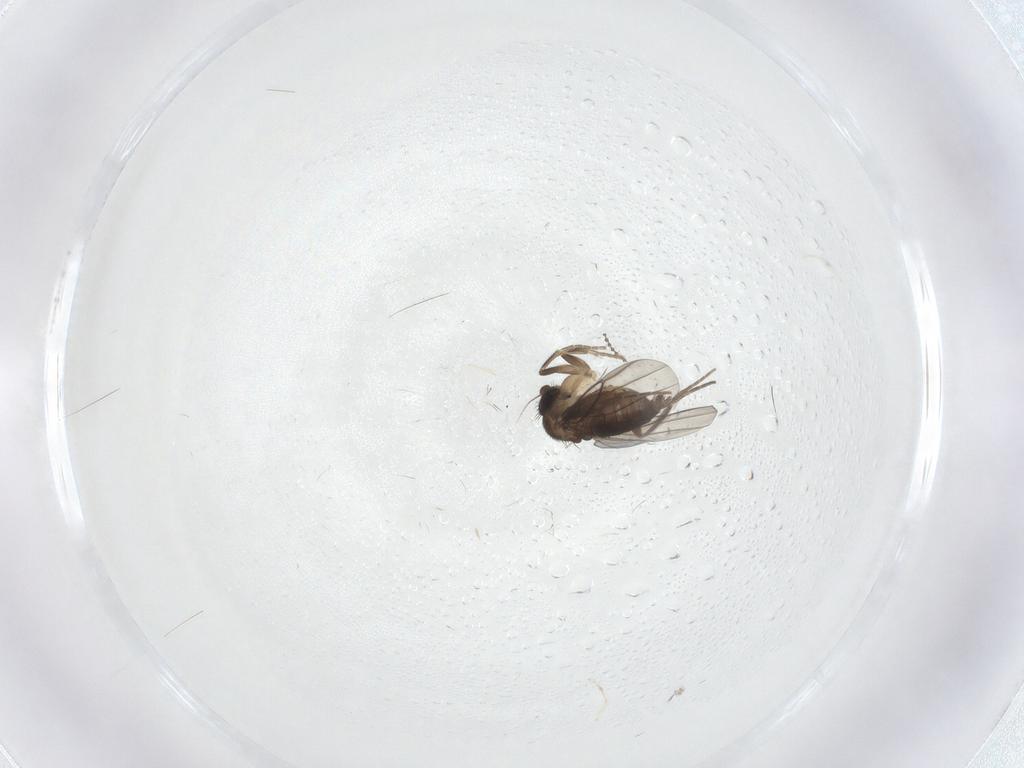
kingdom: Animalia
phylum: Arthropoda
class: Insecta
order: Diptera
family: Phoridae
